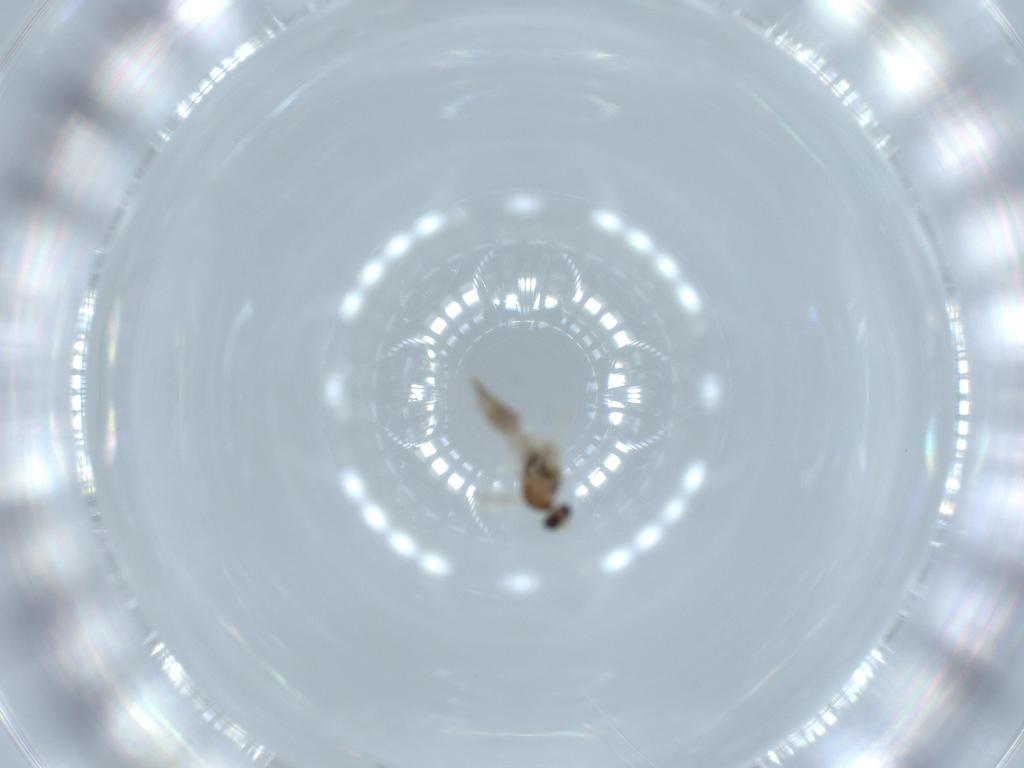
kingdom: Animalia
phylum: Arthropoda
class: Insecta
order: Diptera
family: Cecidomyiidae
